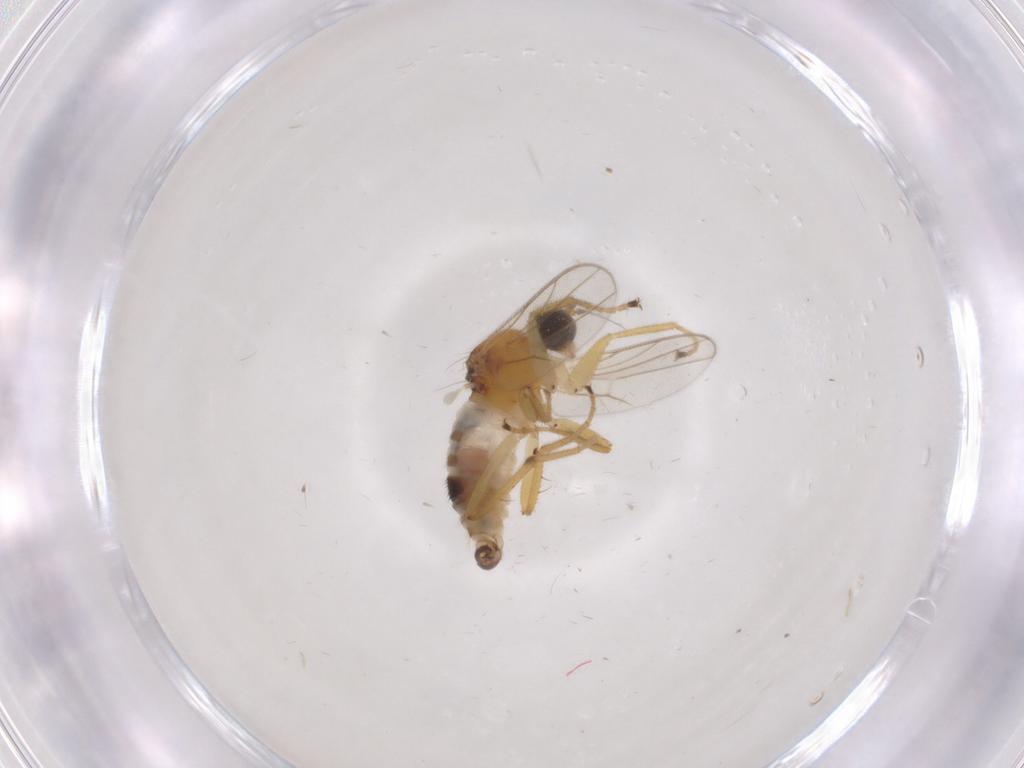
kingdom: Animalia
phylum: Arthropoda
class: Insecta
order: Diptera
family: Hybotidae
